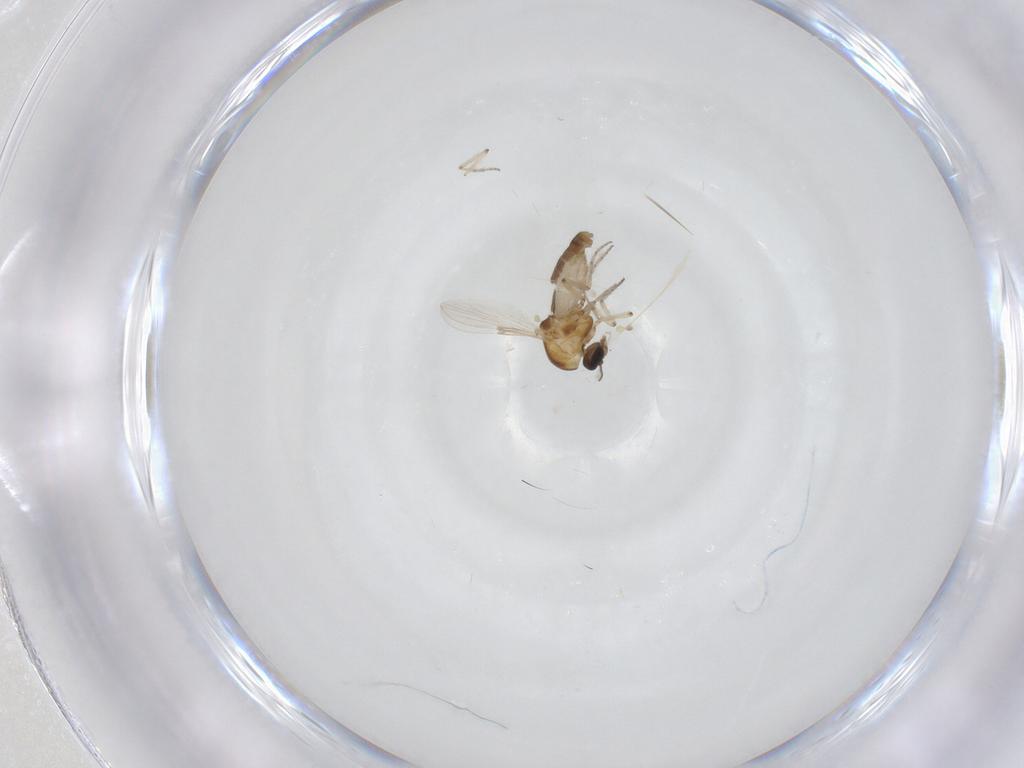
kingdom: Animalia
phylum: Arthropoda
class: Insecta
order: Diptera
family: Ceratopogonidae
